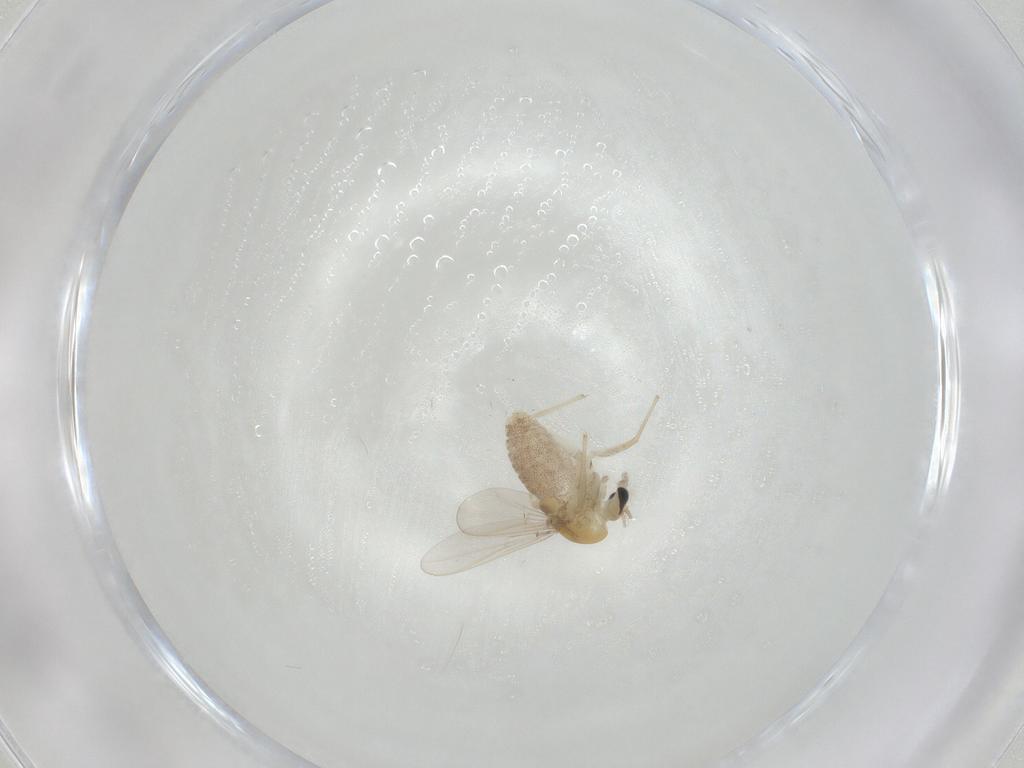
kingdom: Animalia
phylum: Arthropoda
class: Insecta
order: Diptera
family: Chironomidae
